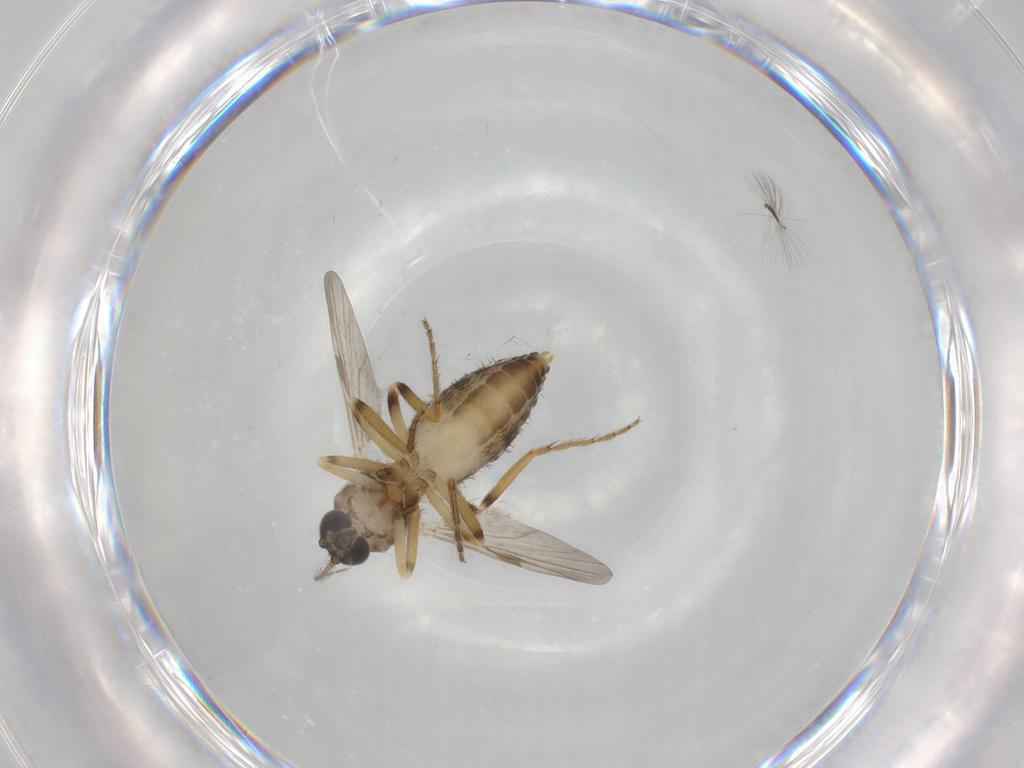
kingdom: Animalia
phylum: Arthropoda
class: Insecta
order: Diptera
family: Ceratopogonidae
